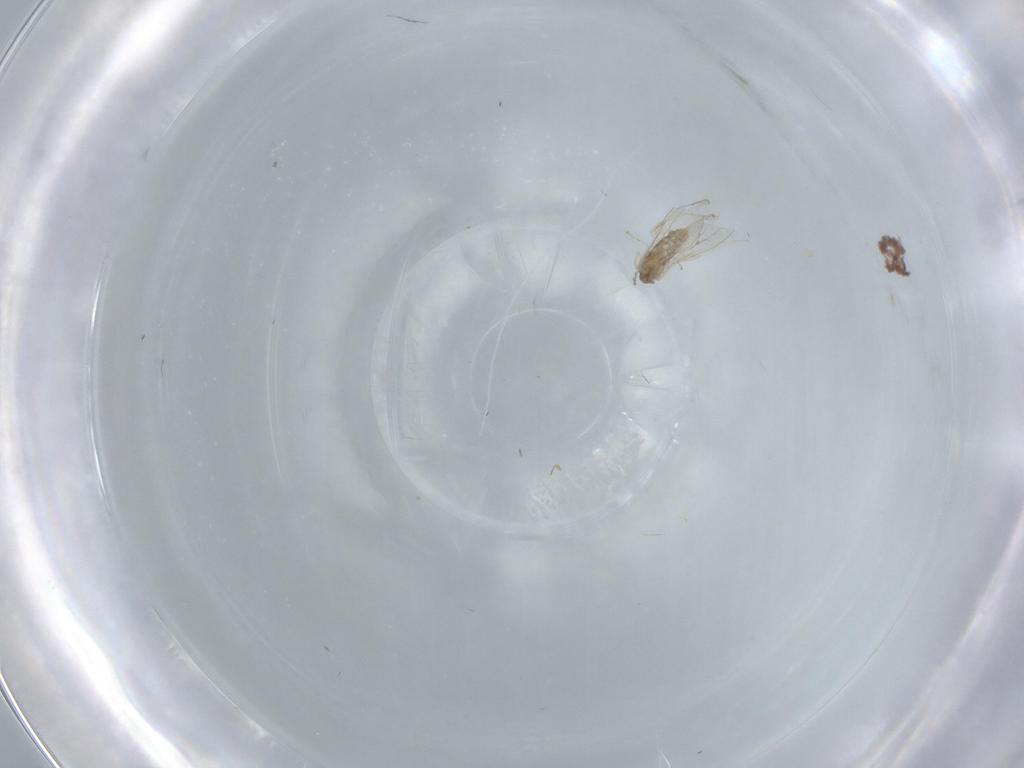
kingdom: Animalia
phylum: Arthropoda
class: Insecta
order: Diptera
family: Cecidomyiidae
